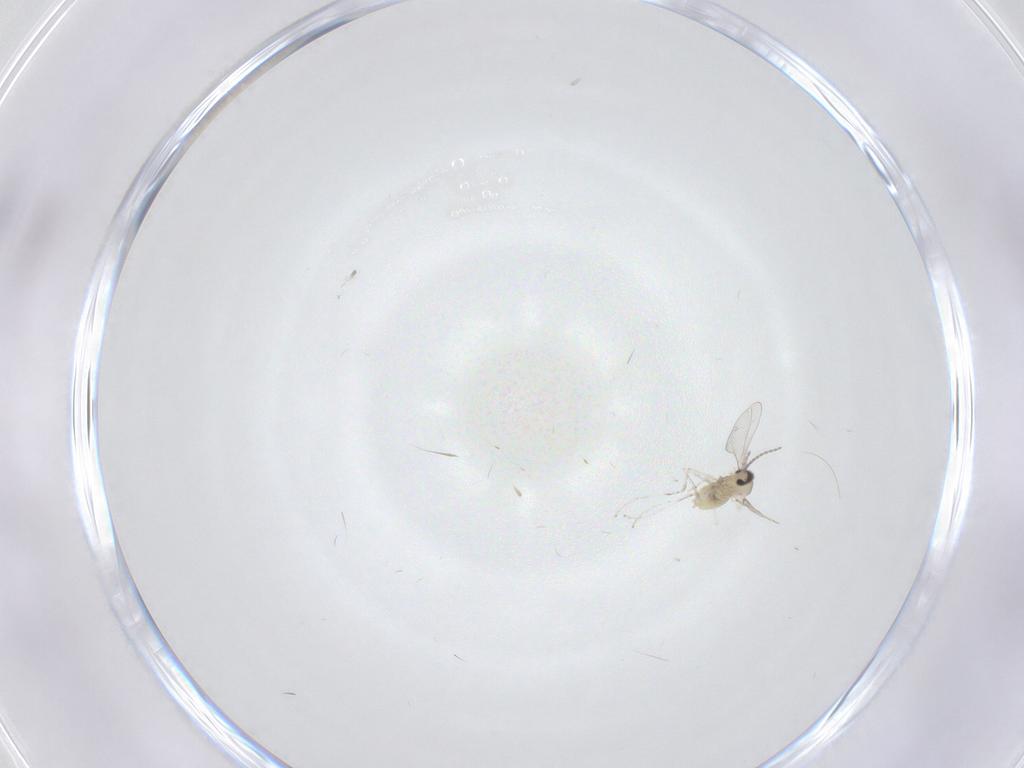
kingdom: Animalia
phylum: Arthropoda
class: Insecta
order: Diptera
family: Cecidomyiidae
